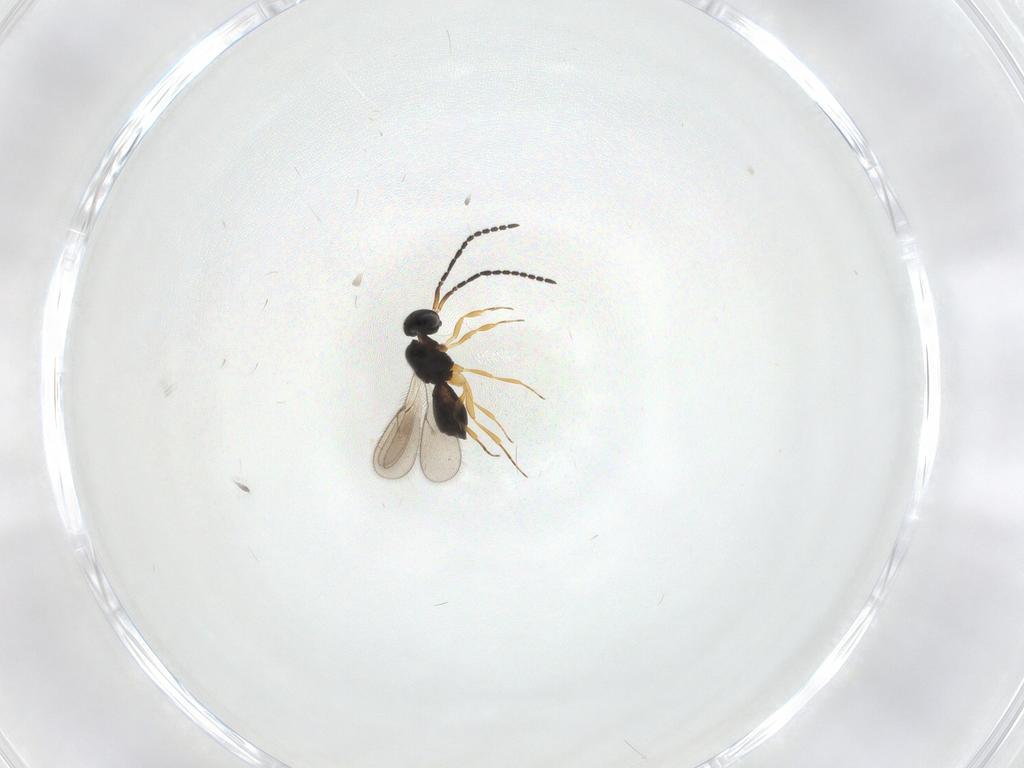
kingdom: Animalia
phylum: Arthropoda
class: Insecta
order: Hymenoptera
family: Scelionidae
